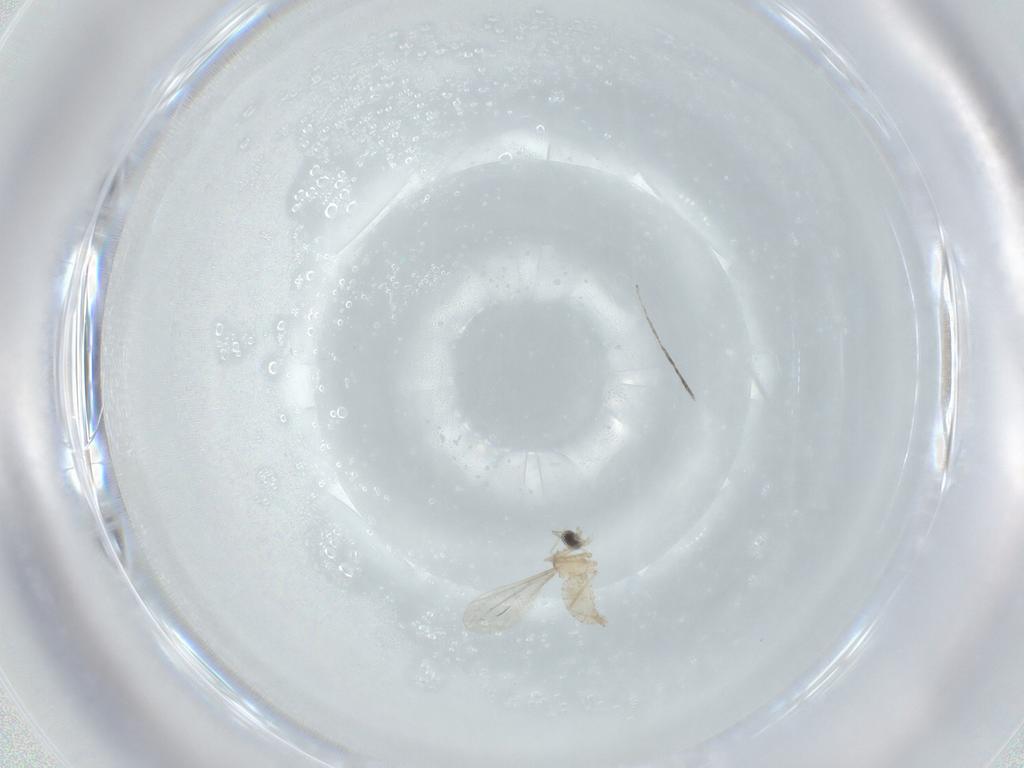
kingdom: Animalia
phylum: Arthropoda
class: Insecta
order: Diptera
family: Cecidomyiidae
